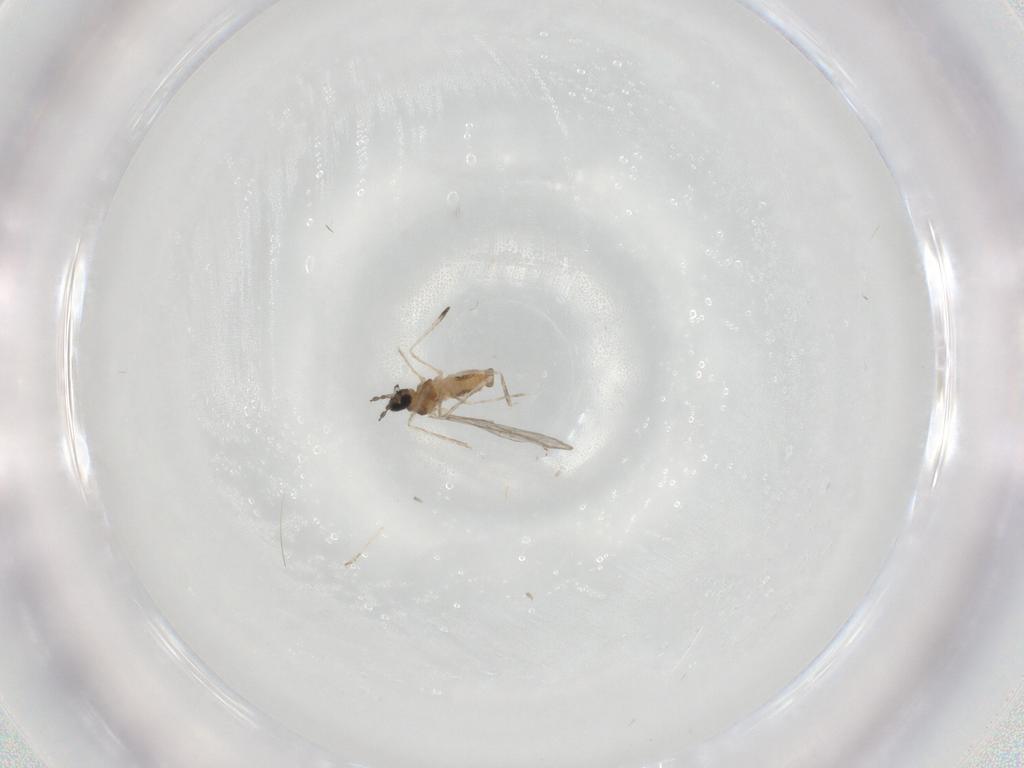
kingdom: Animalia
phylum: Arthropoda
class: Insecta
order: Diptera
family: Cecidomyiidae
